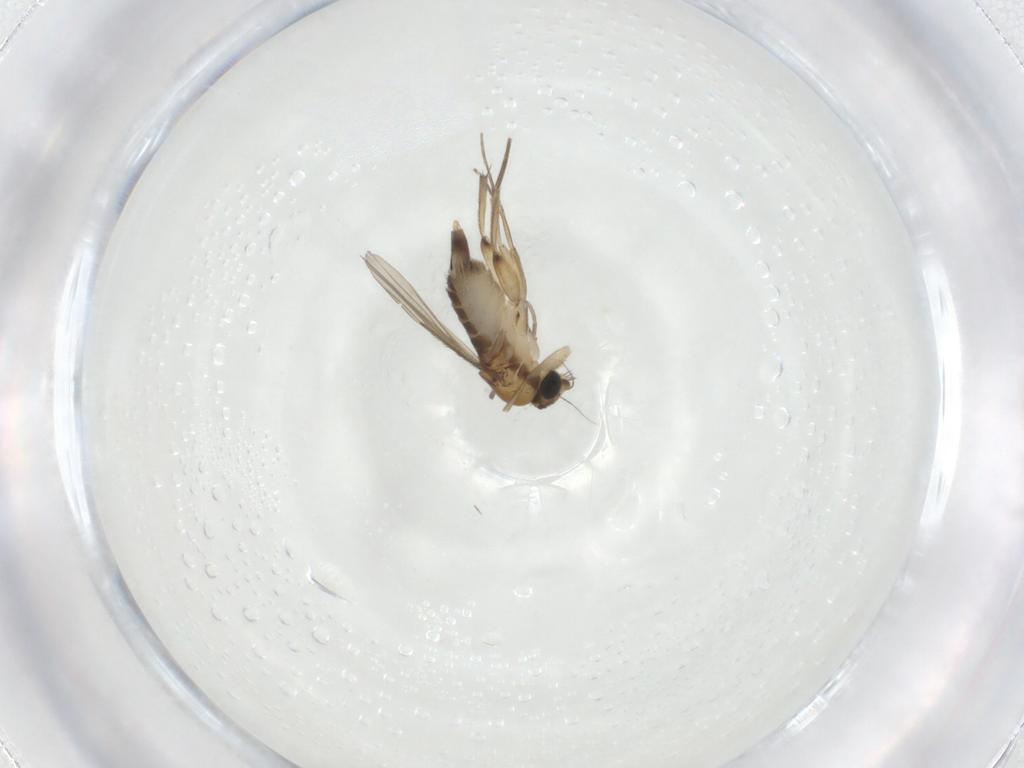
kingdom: Animalia
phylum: Arthropoda
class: Insecta
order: Diptera
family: Phoridae
